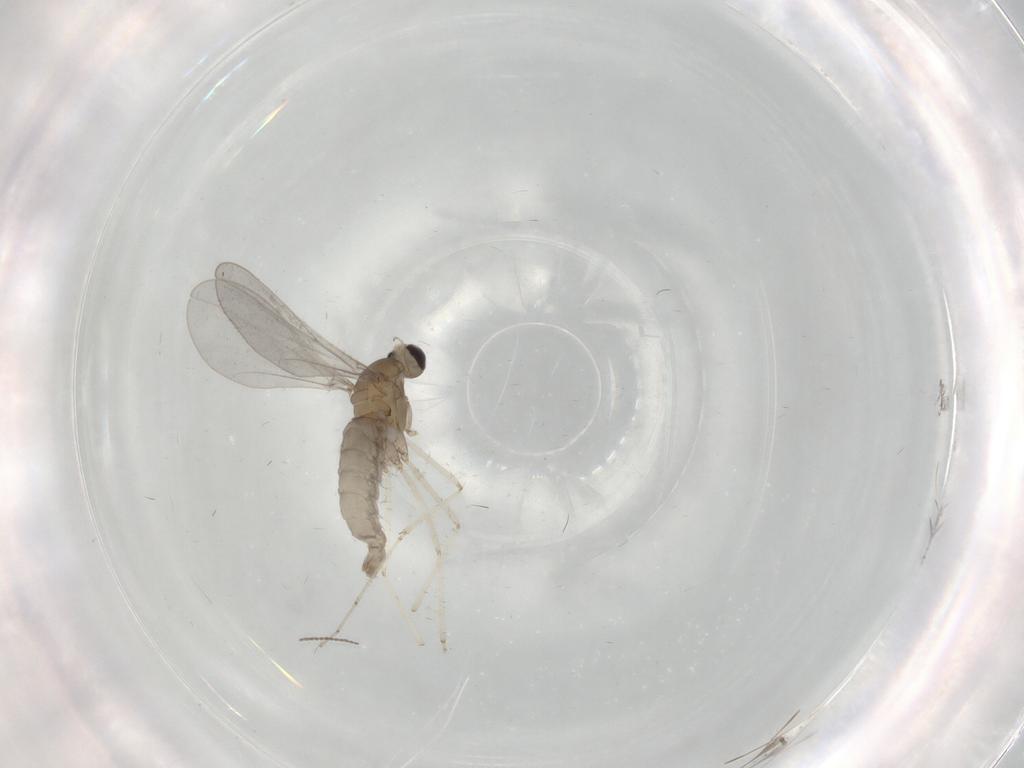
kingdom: Animalia
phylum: Arthropoda
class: Insecta
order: Diptera
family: Cecidomyiidae
